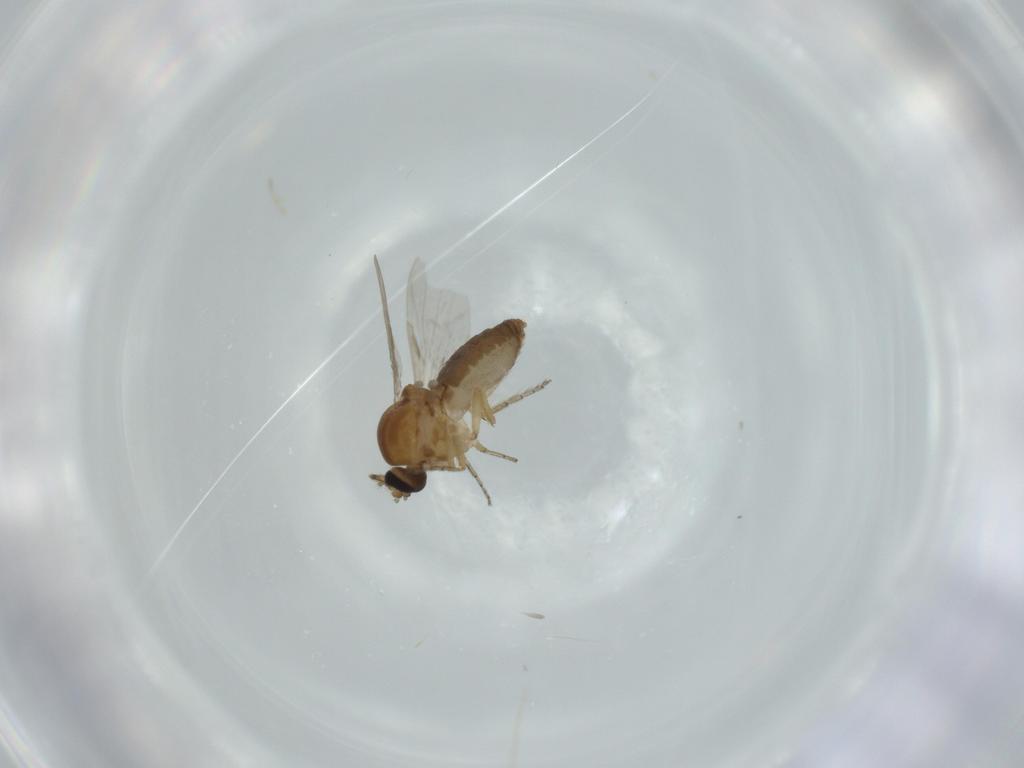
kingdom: Animalia
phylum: Arthropoda
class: Insecta
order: Diptera
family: Ceratopogonidae
